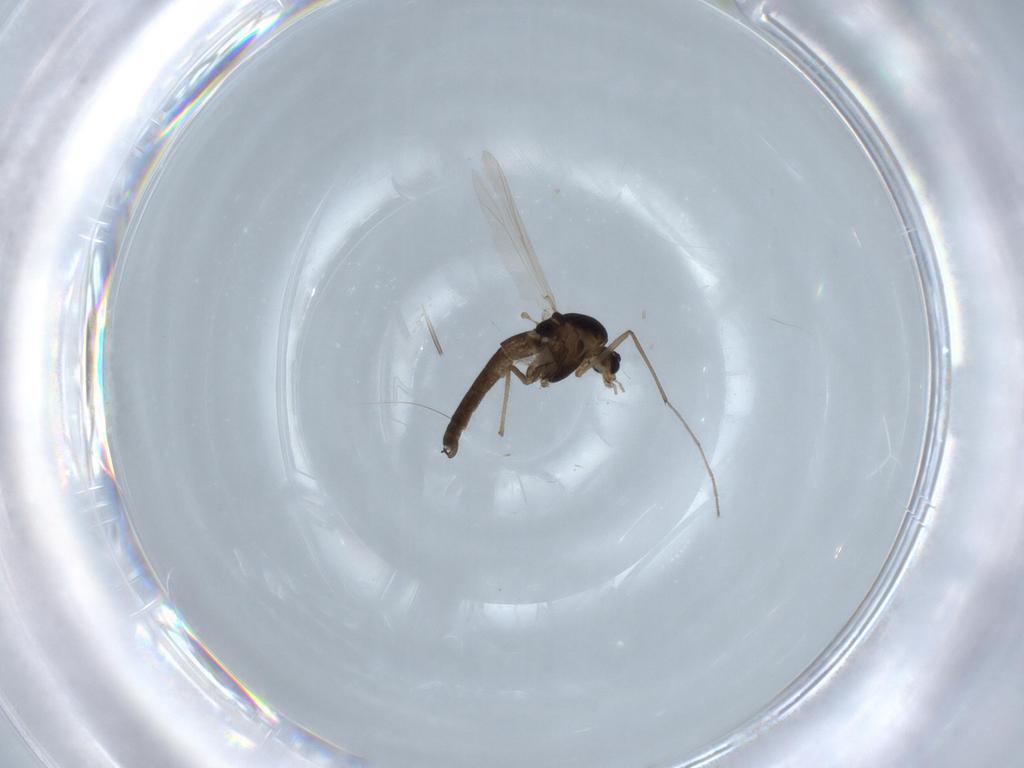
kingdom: Animalia
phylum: Arthropoda
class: Insecta
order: Diptera
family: Chironomidae
